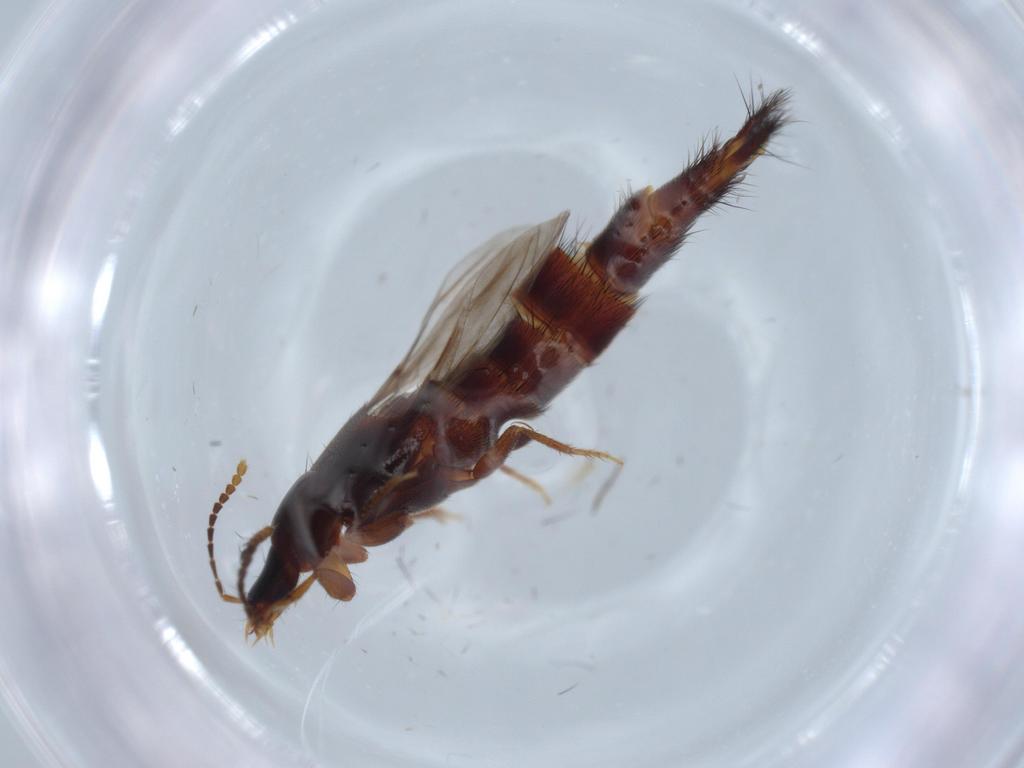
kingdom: Animalia
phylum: Arthropoda
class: Insecta
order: Coleoptera
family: Staphylinidae
